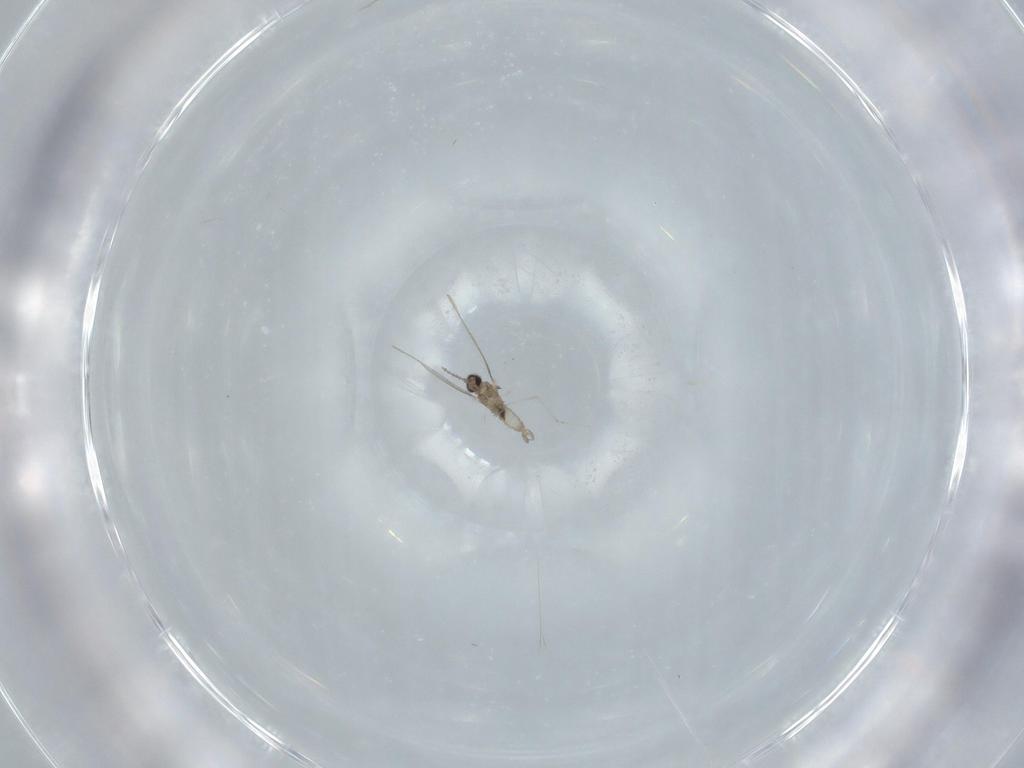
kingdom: Animalia
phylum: Arthropoda
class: Insecta
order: Diptera
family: Cecidomyiidae
